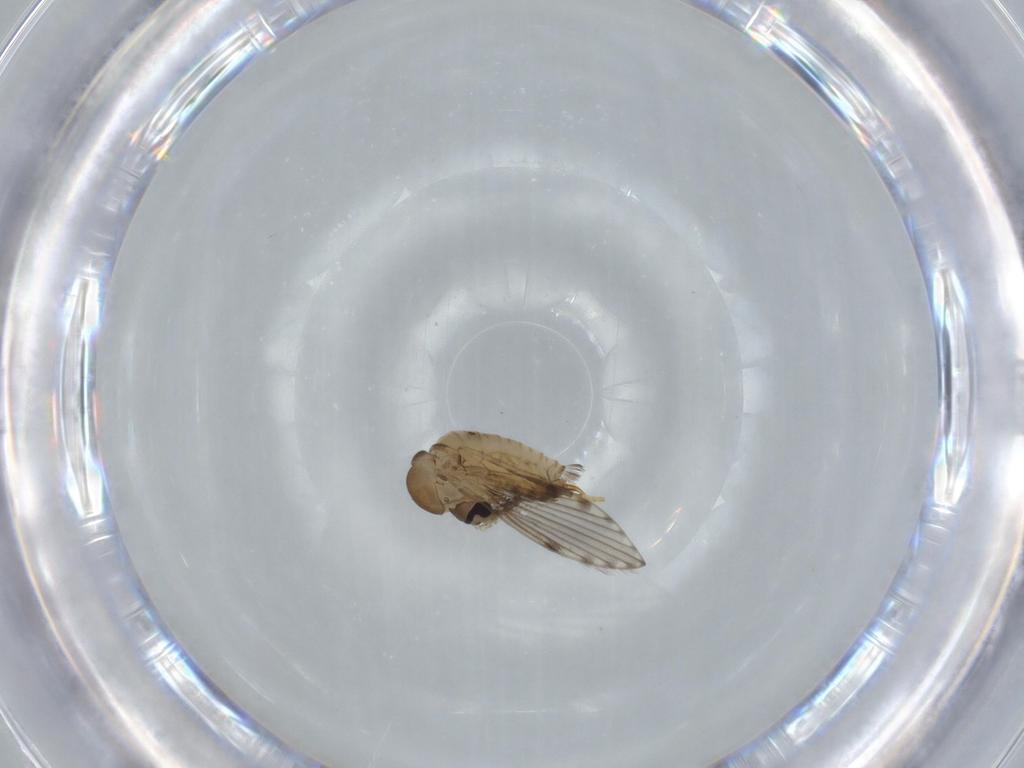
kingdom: Animalia
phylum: Arthropoda
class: Insecta
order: Diptera
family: Psychodidae
